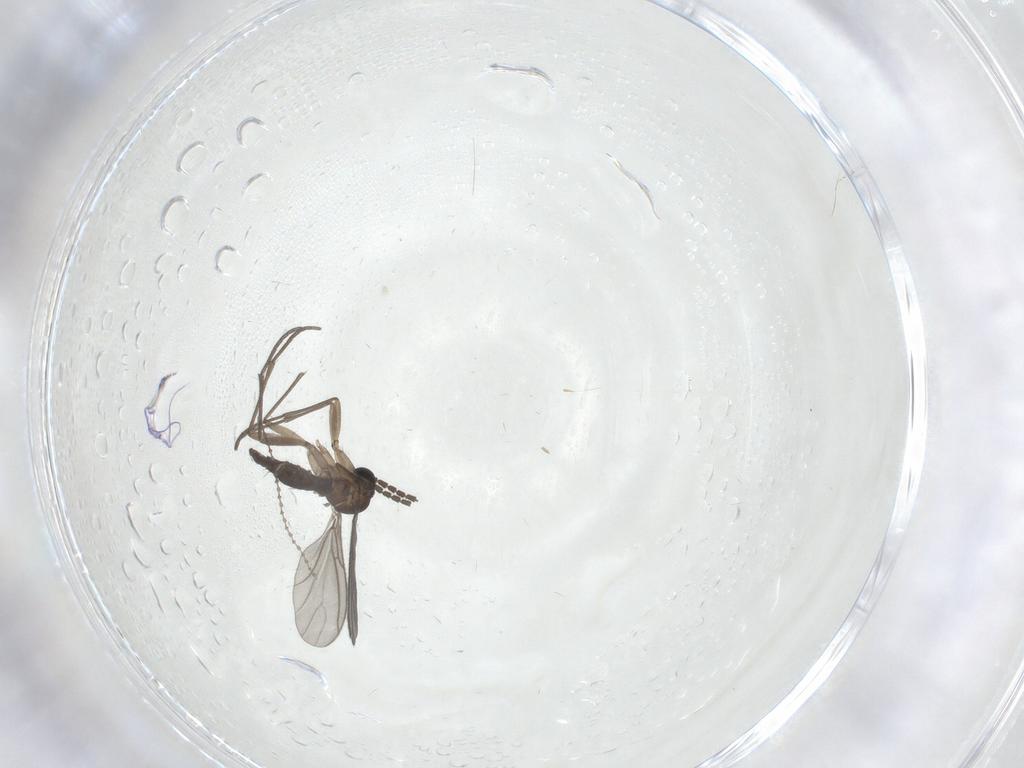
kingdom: Animalia
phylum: Arthropoda
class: Insecta
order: Diptera
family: Sciaridae
